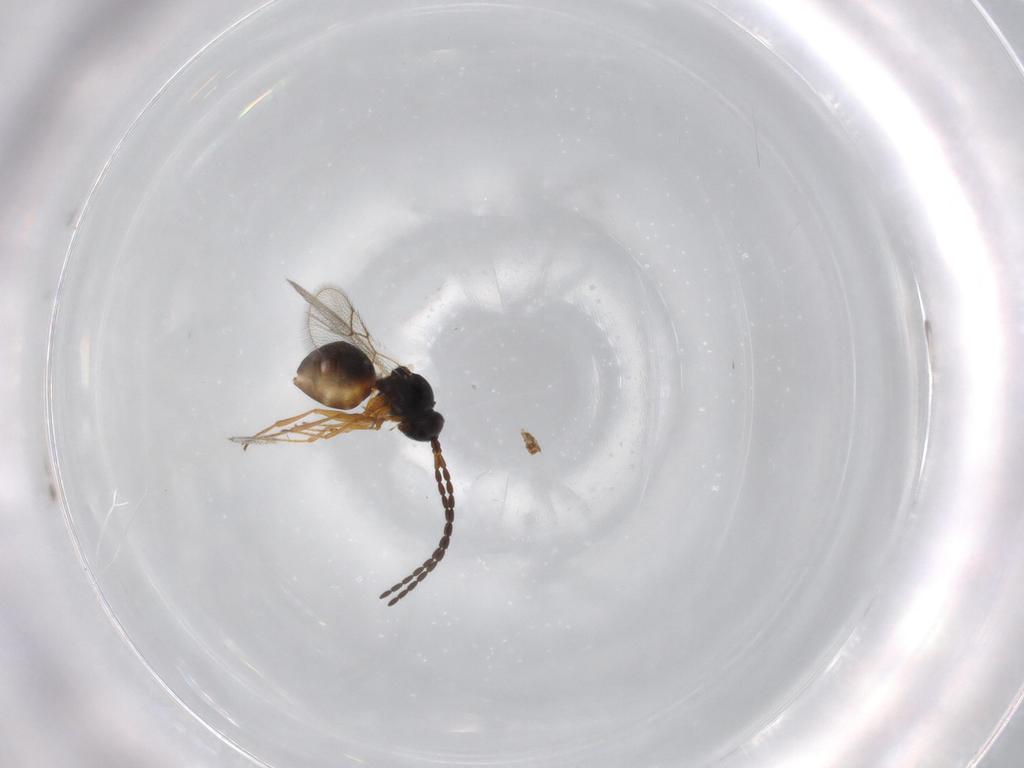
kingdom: Animalia
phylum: Arthropoda
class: Insecta
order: Hymenoptera
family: Figitidae
